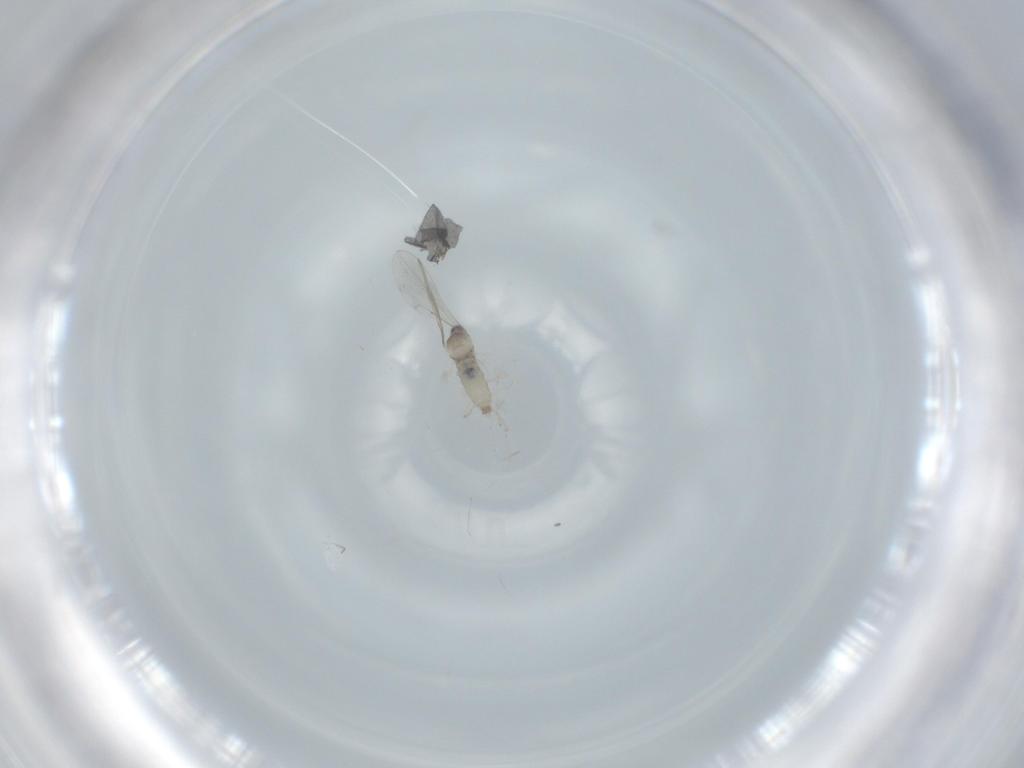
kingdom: Animalia
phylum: Arthropoda
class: Insecta
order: Diptera
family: Cecidomyiidae
